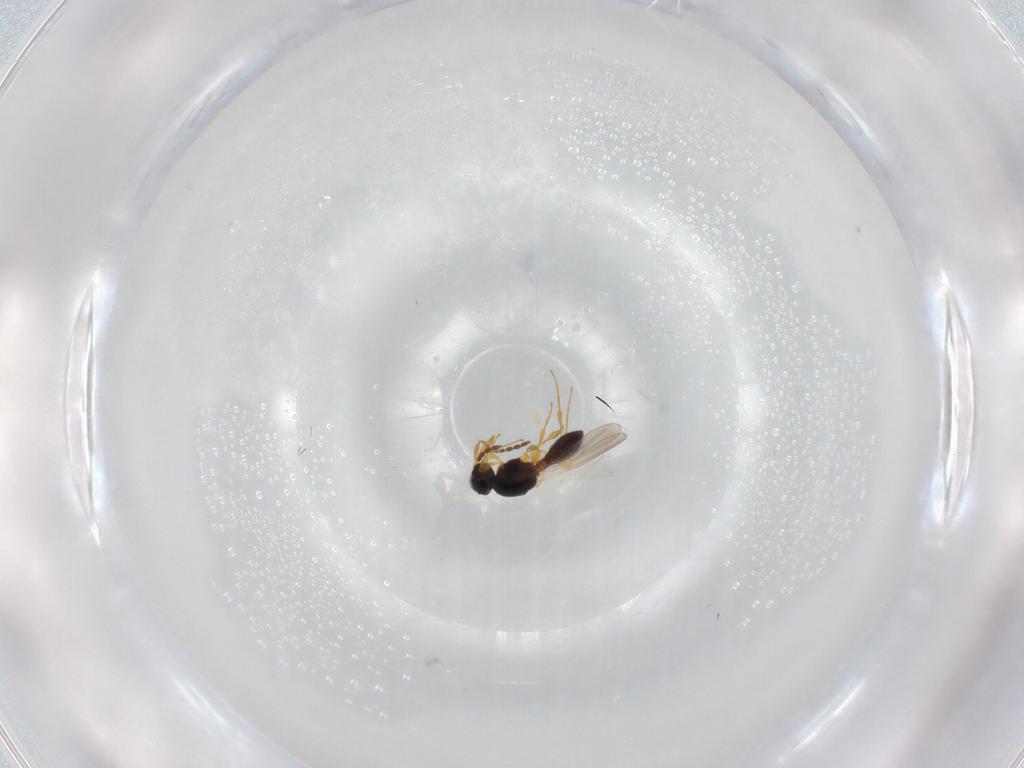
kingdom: Animalia
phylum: Arthropoda
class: Insecta
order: Hymenoptera
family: Platygastridae
